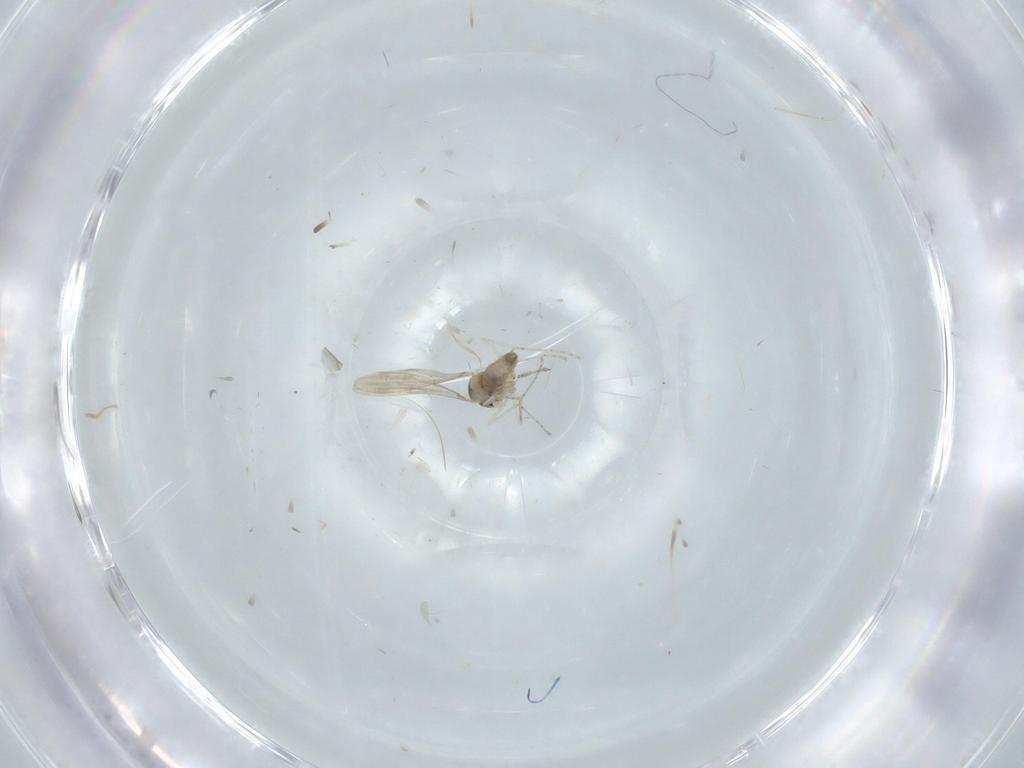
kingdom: Animalia
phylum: Arthropoda
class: Insecta
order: Diptera
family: Chironomidae
